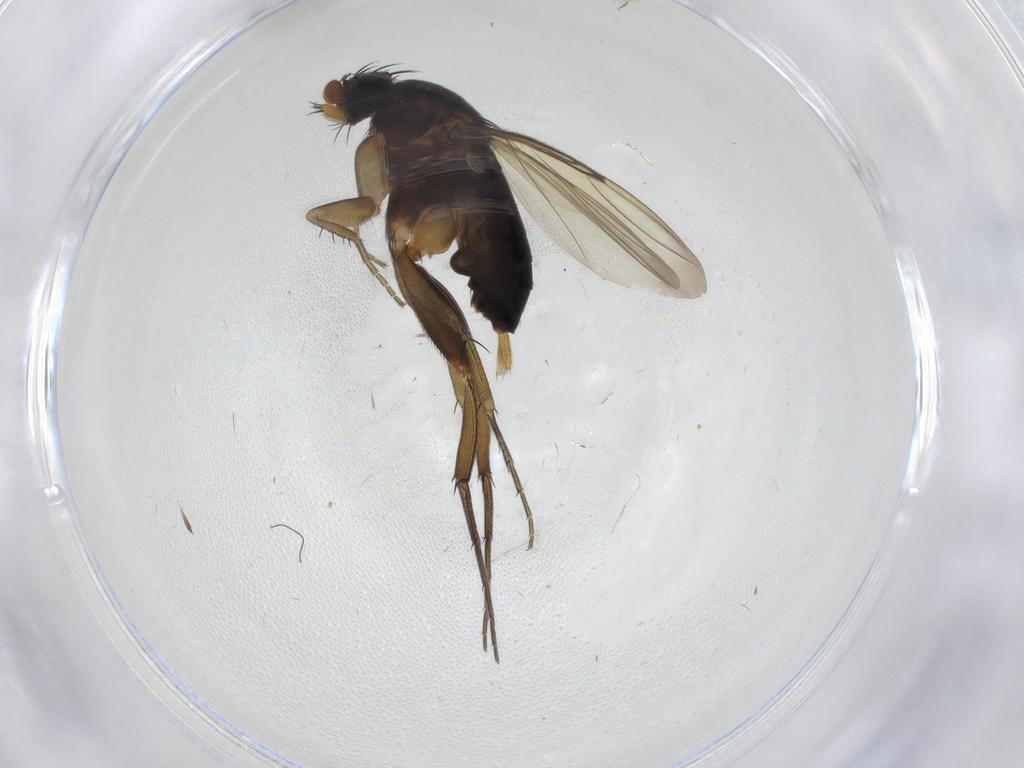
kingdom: Animalia
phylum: Arthropoda
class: Insecta
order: Diptera
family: Phoridae
